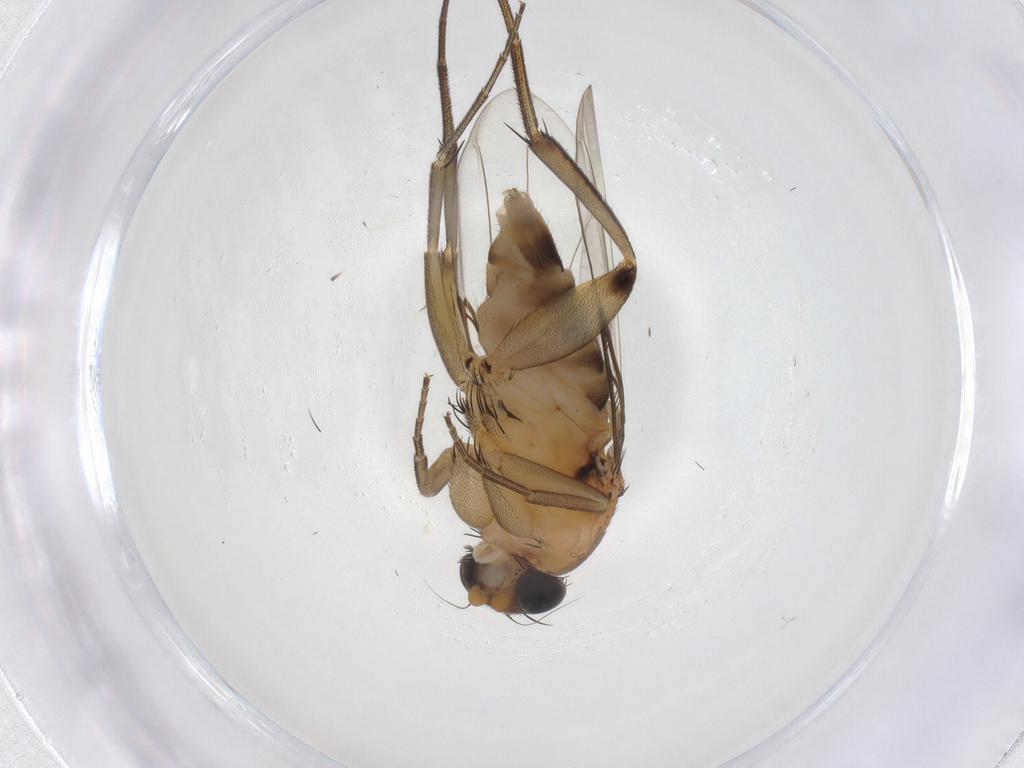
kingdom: Animalia
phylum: Arthropoda
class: Insecta
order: Diptera
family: Phoridae
